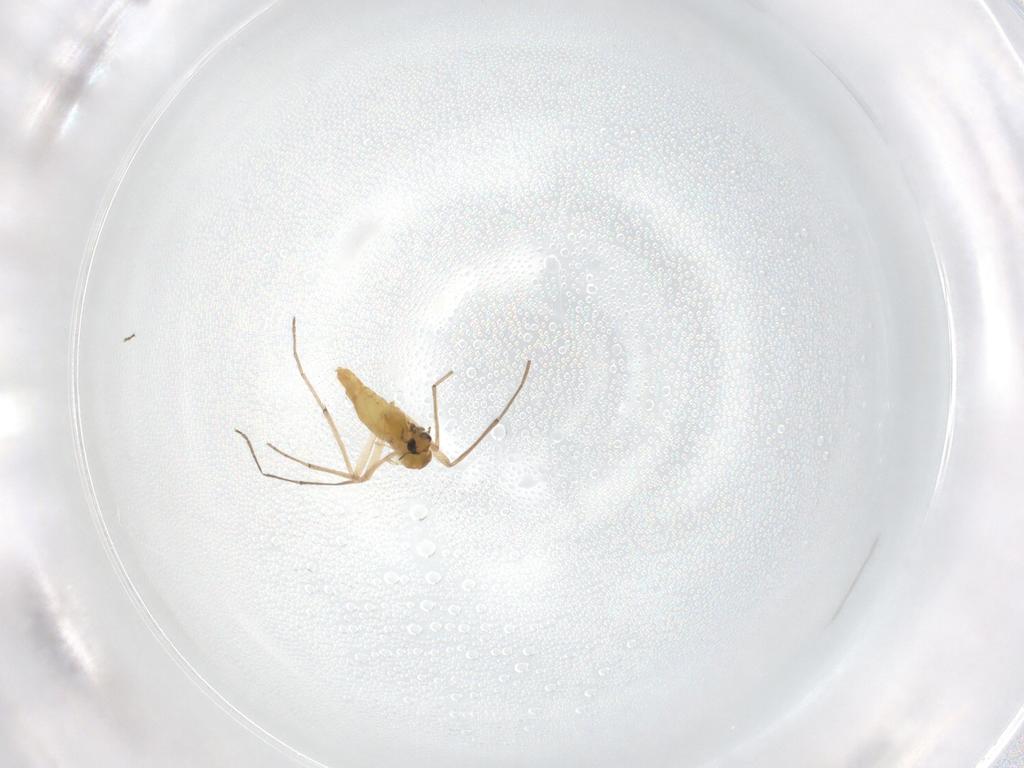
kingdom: Animalia
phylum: Arthropoda
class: Insecta
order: Diptera
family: Chironomidae
